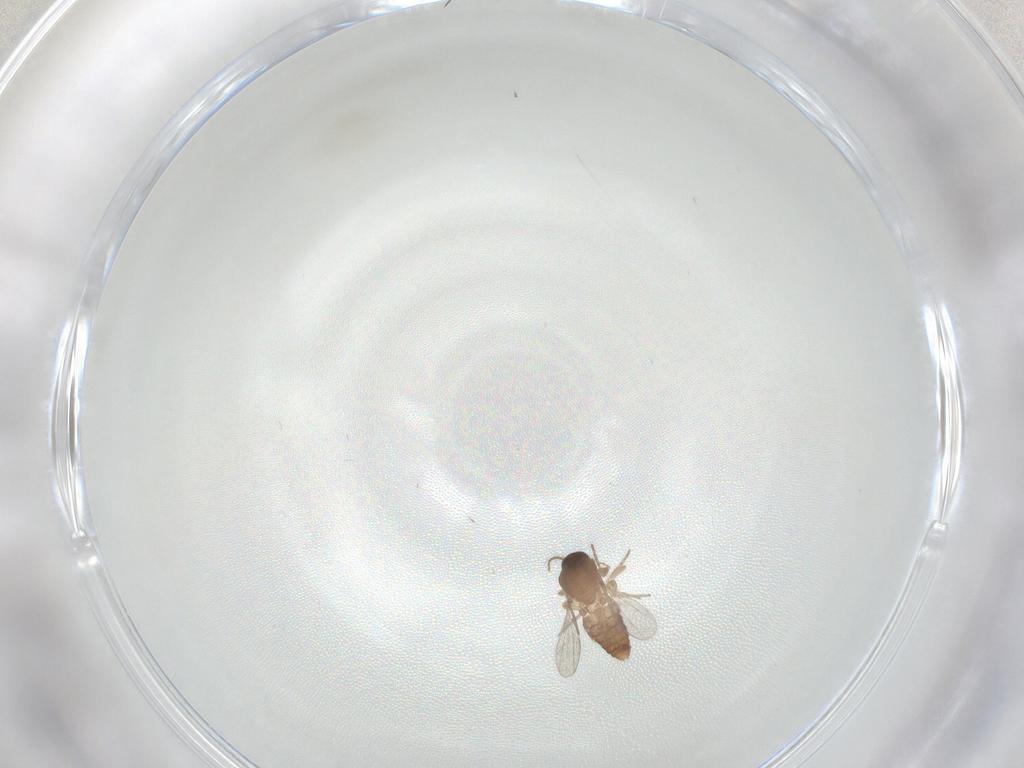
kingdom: Animalia
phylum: Arthropoda
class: Insecta
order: Diptera
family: Ceratopogonidae
